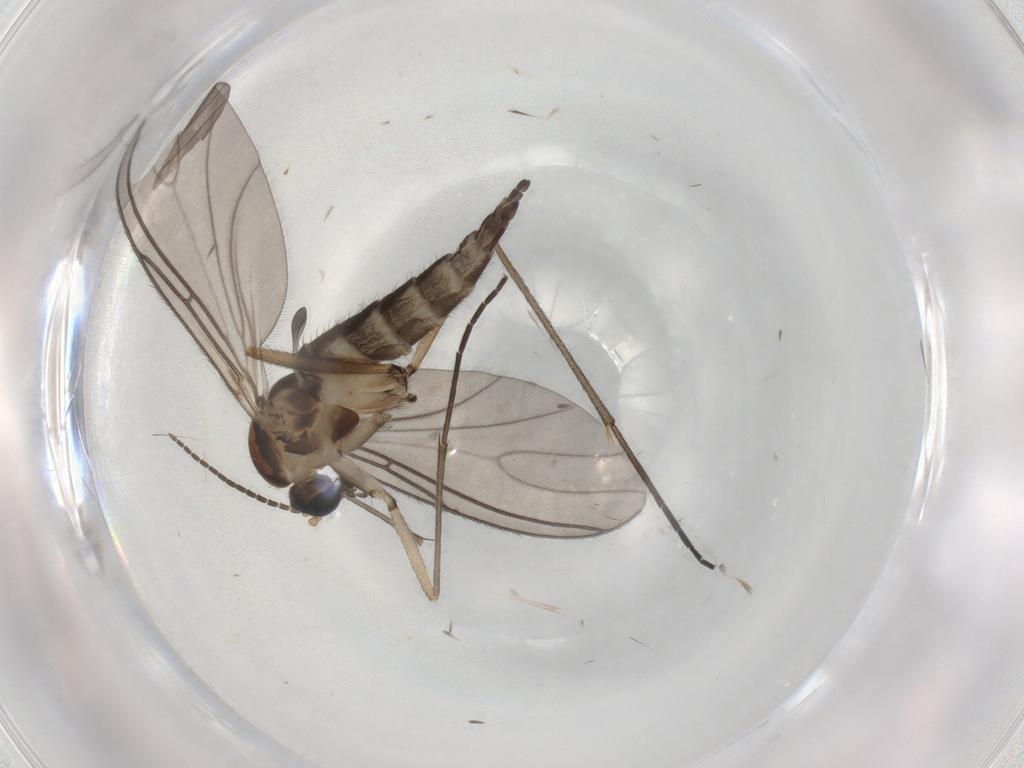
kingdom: Animalia
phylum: Arthropoda
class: Insecta
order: Diptera
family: Sciaridae
